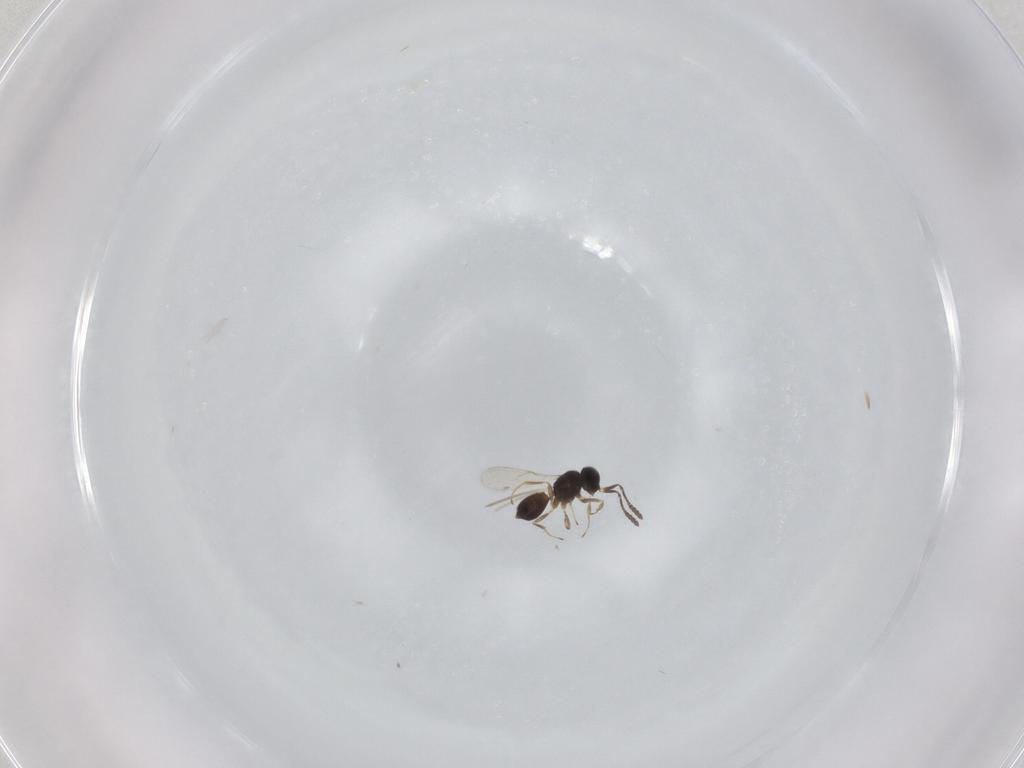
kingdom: Animalia
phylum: Arthropoda
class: Insecta
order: Hymenoptera
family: Scelionidae
